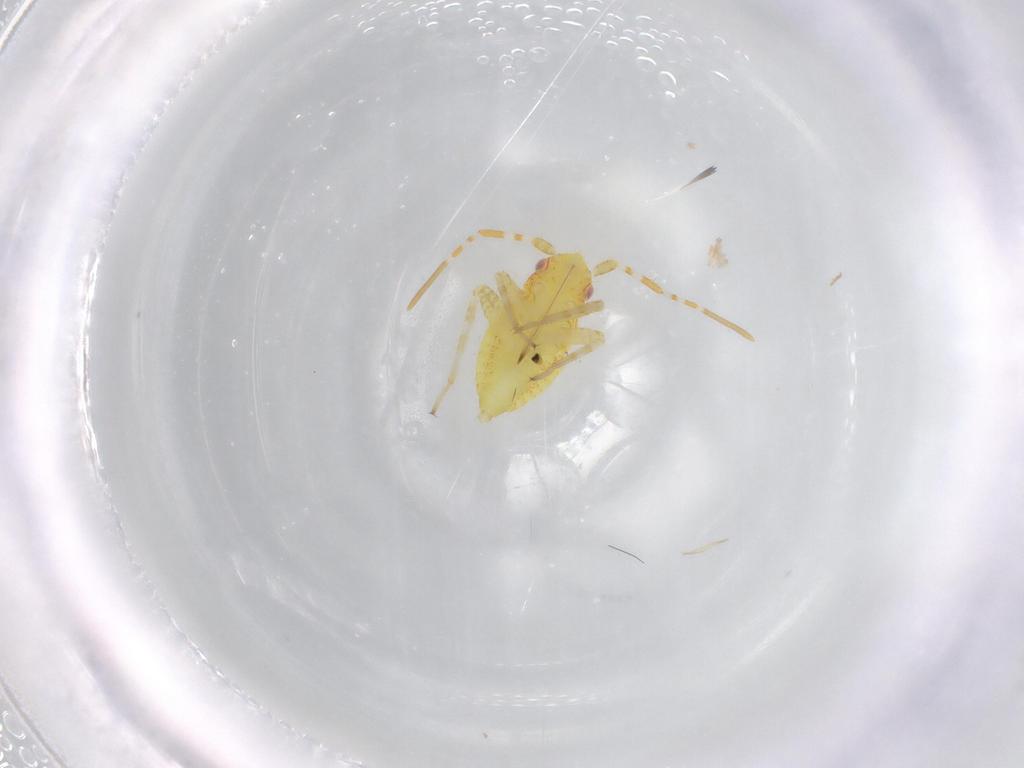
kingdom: Animalia
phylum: Arthropoda
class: Insecta
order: Hemiptera
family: Miridae
